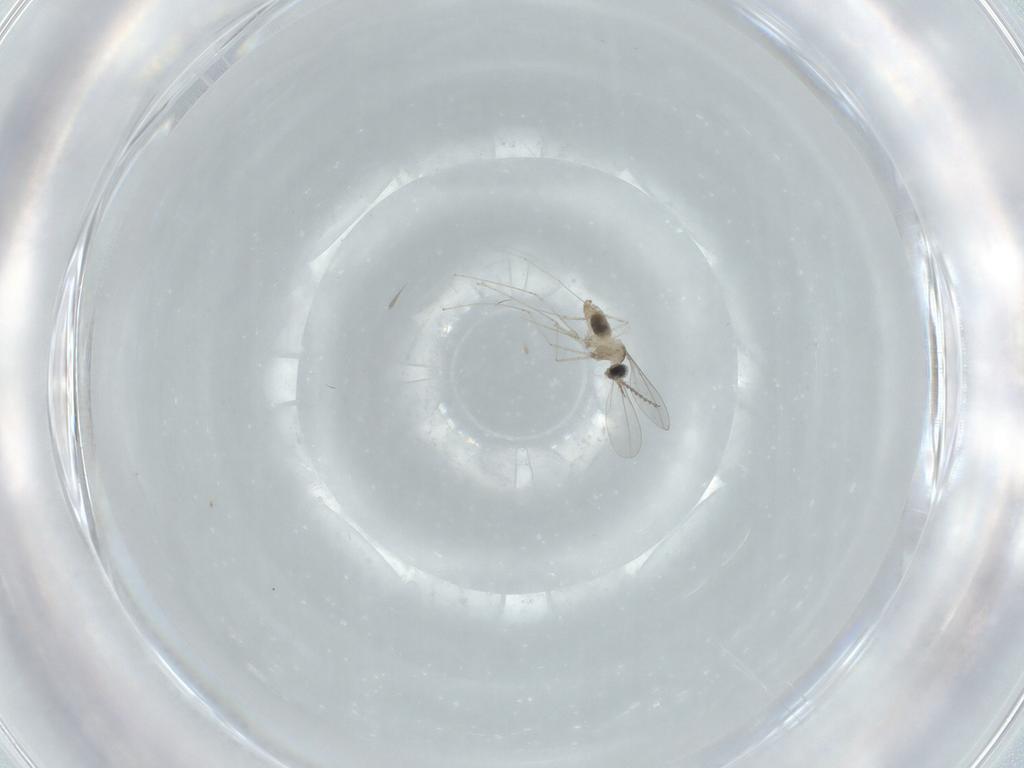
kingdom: Animalia
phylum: Arthropoda
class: Insecta
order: Diptera
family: Cecidomyiidae
